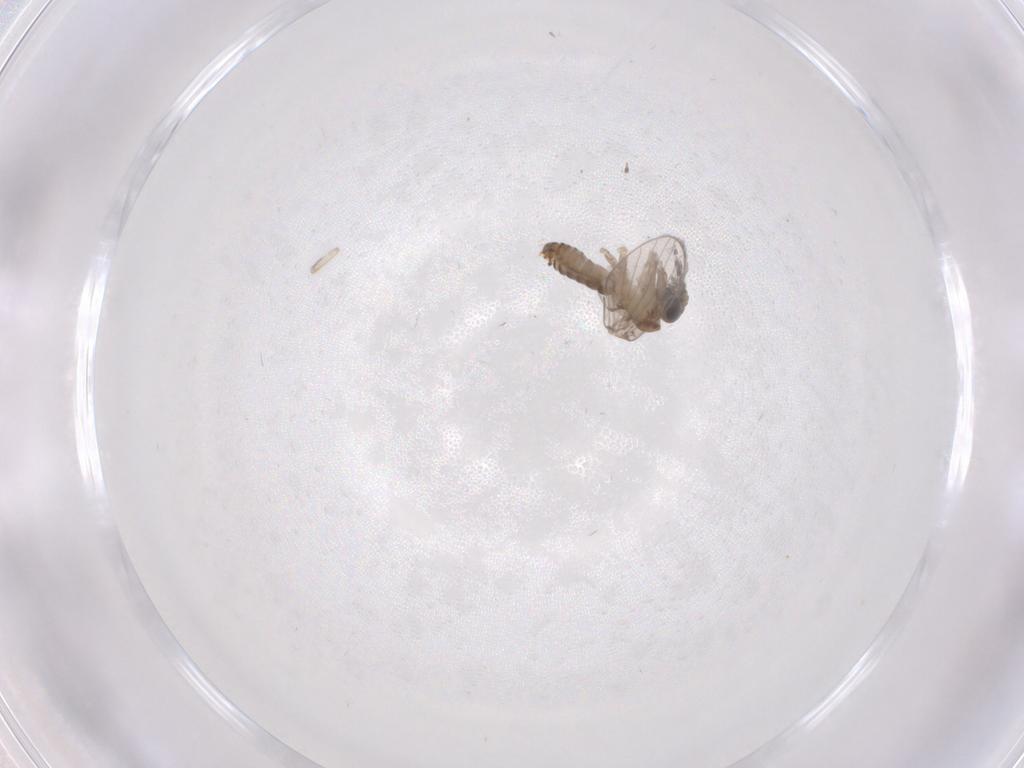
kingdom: Animalia
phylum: Arthropoda
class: Insecta
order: Diptera
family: Psychodidae
